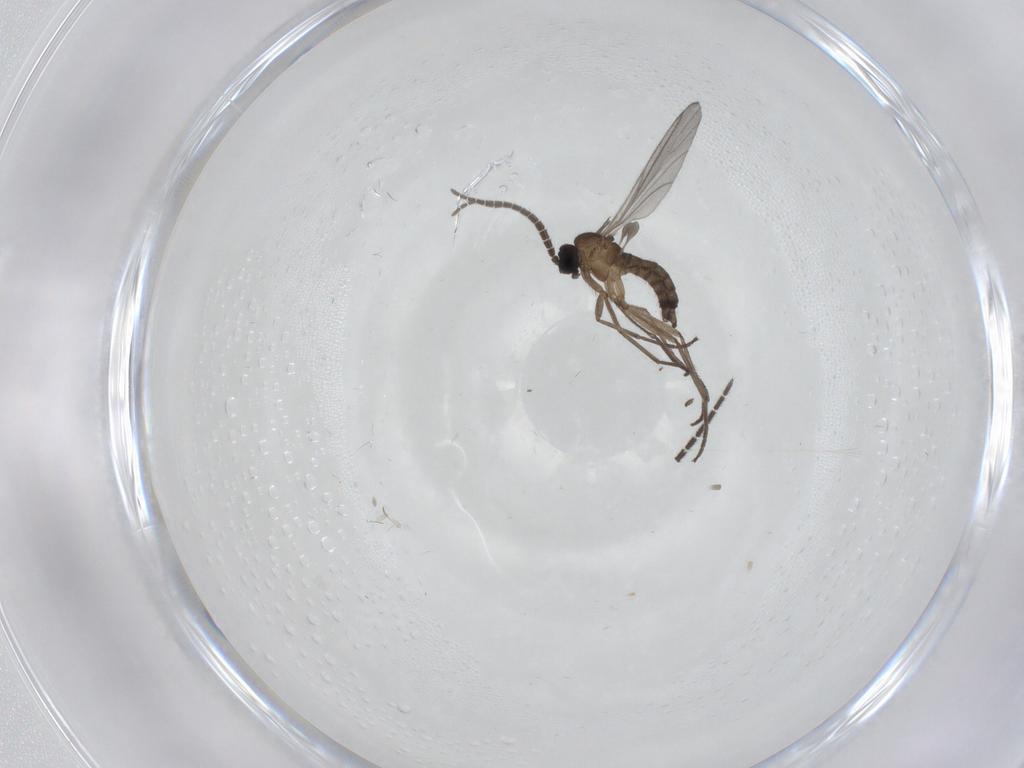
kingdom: Animalia
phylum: Arthropoda
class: Insecta
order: Diptera
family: Sciaridae
